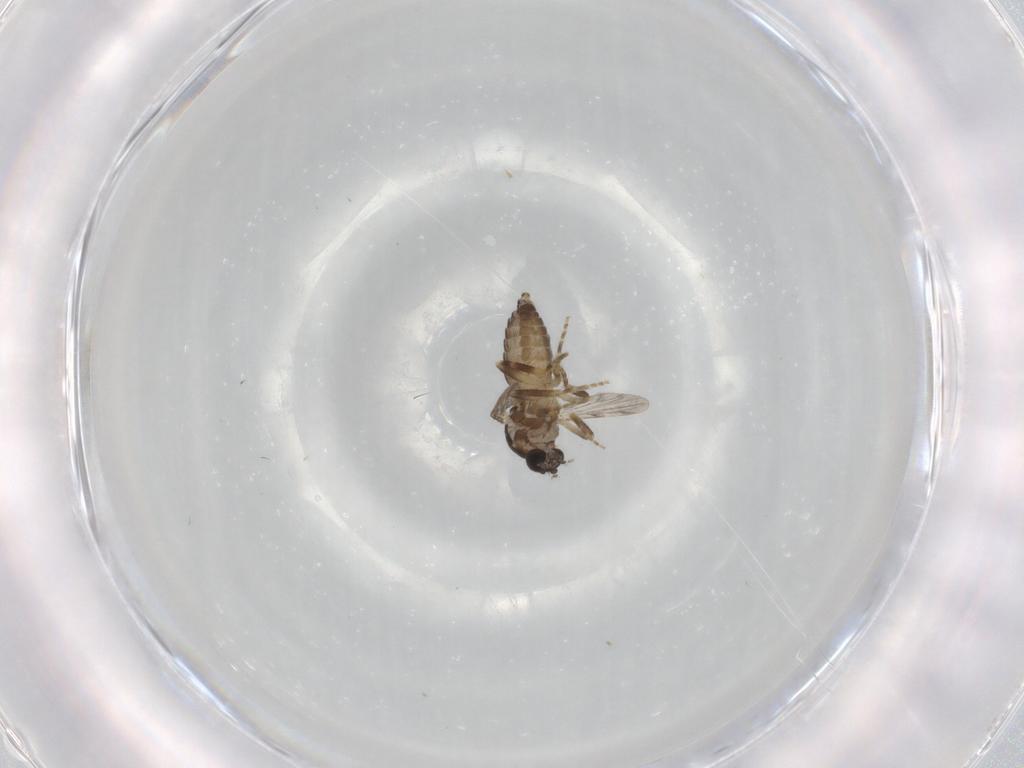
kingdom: Animalia
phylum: Arthropoda
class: Insecta
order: Diptera
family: Ceratopogonidae
